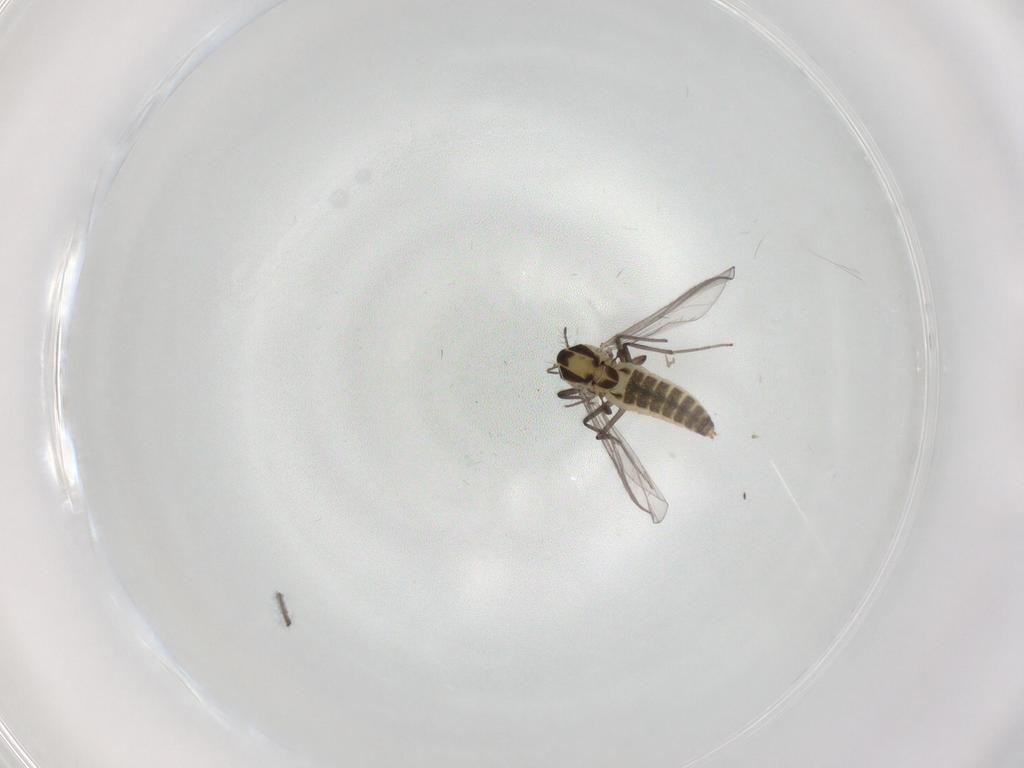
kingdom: Animalia
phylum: Arthropoda
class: Insecta
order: Diptera
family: Chironomidae
